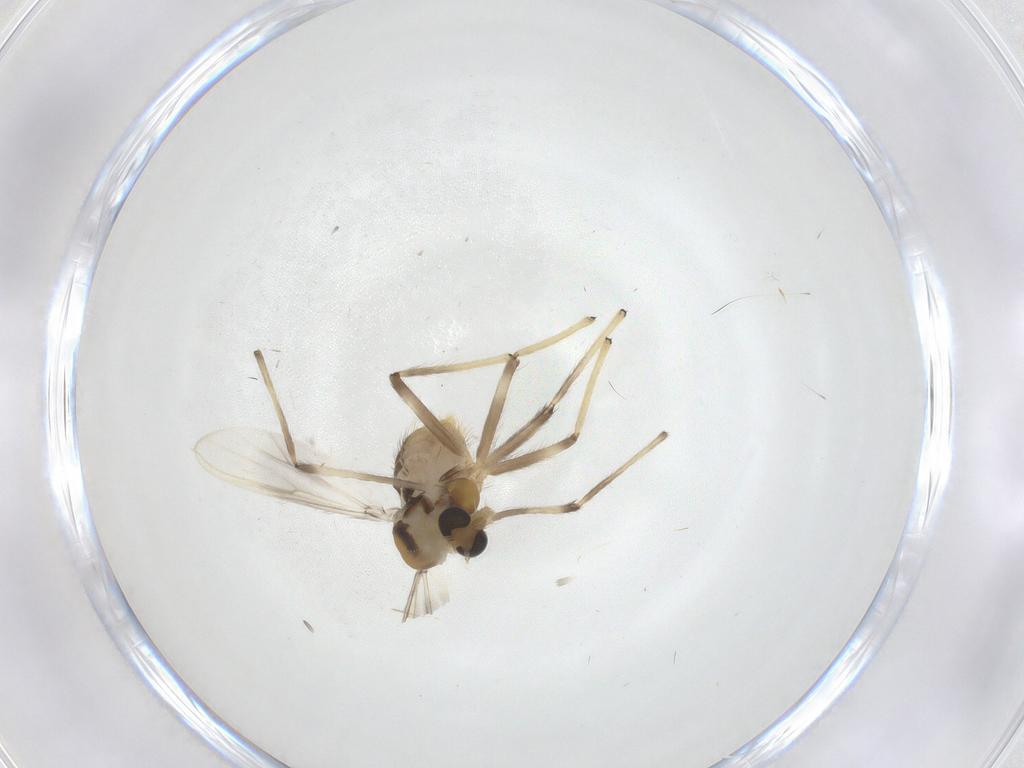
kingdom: Animalia
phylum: Arthropoda
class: Insecta
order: Diptera
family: Chironomidae
